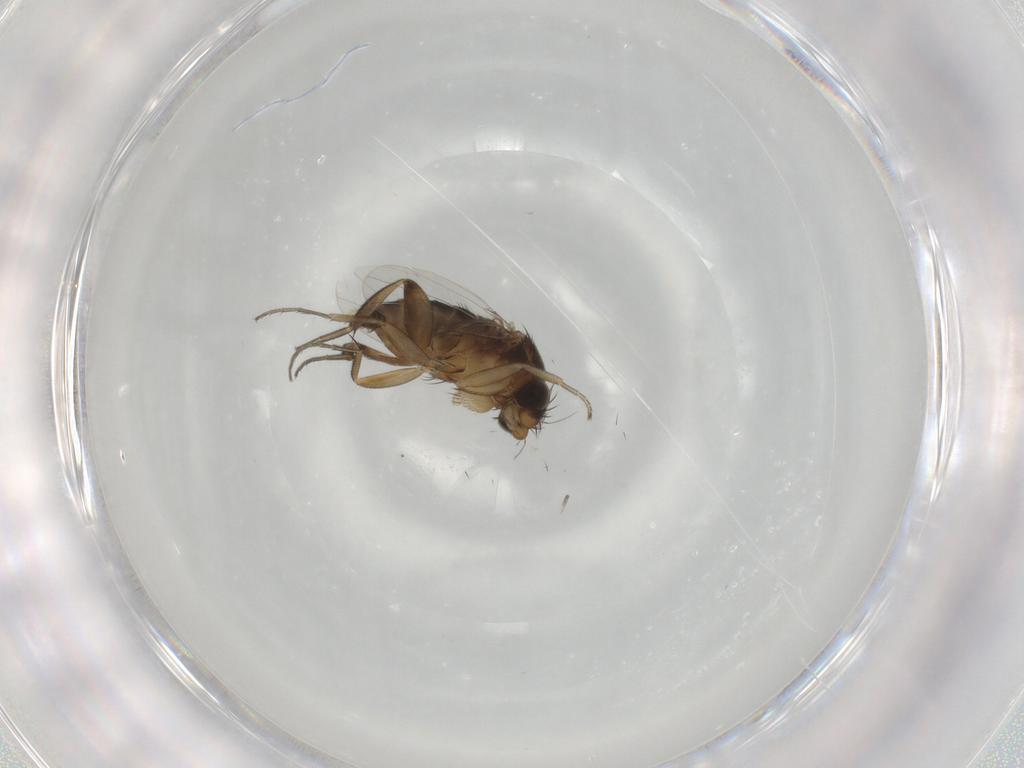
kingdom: Animalia
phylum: Arthropoda
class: Insecta
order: Diptera
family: Phoridae
